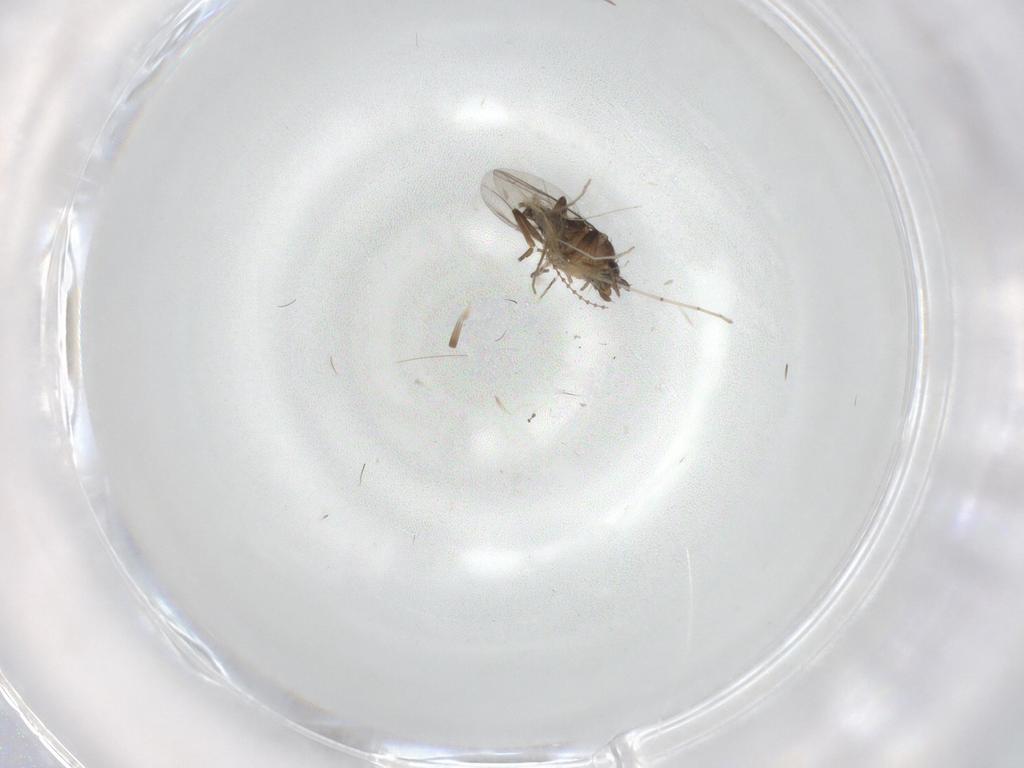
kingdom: Animalia
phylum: Arthropoda
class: Insecta
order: Diptera
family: Phoridae
